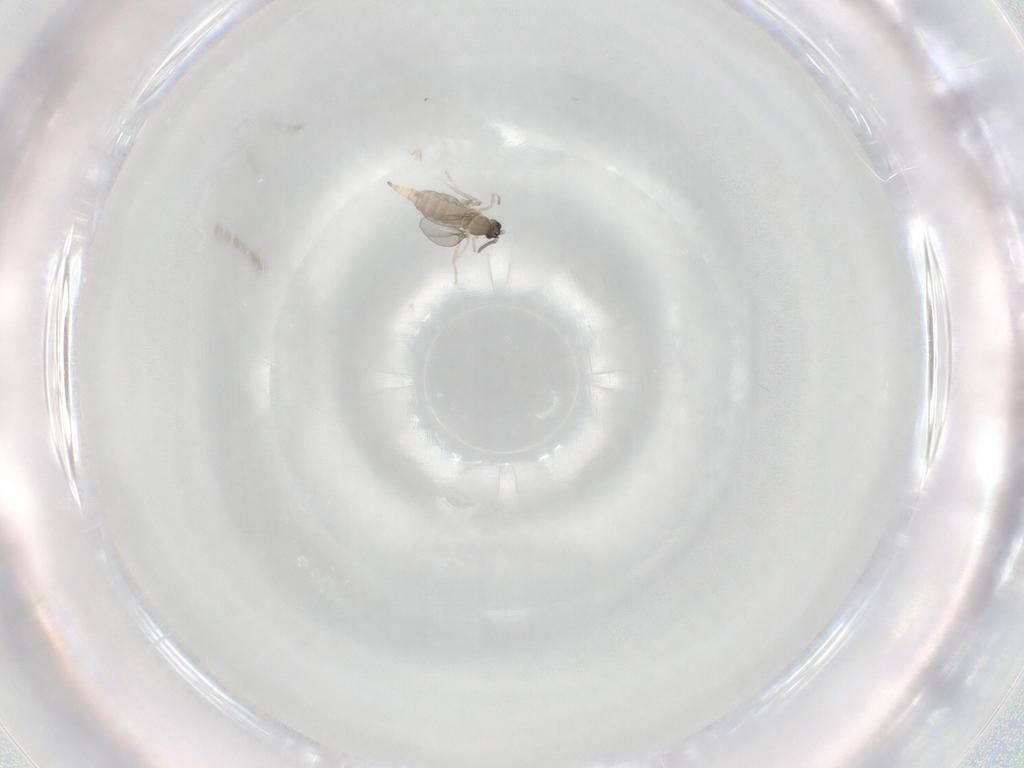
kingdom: Animalia
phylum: Arthropoda
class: Insecta
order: Diptera
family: Cecidomyiidae
